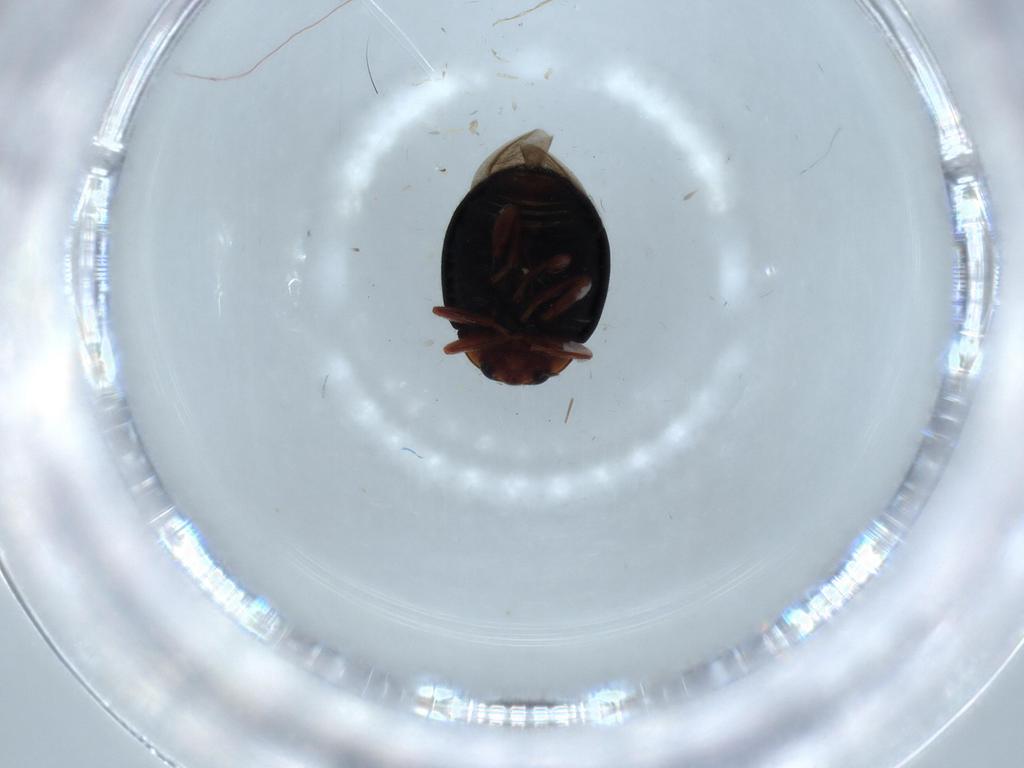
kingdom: Animalia
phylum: Arthropoda
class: Insecta
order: Coleoptera
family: Coccinellidae
